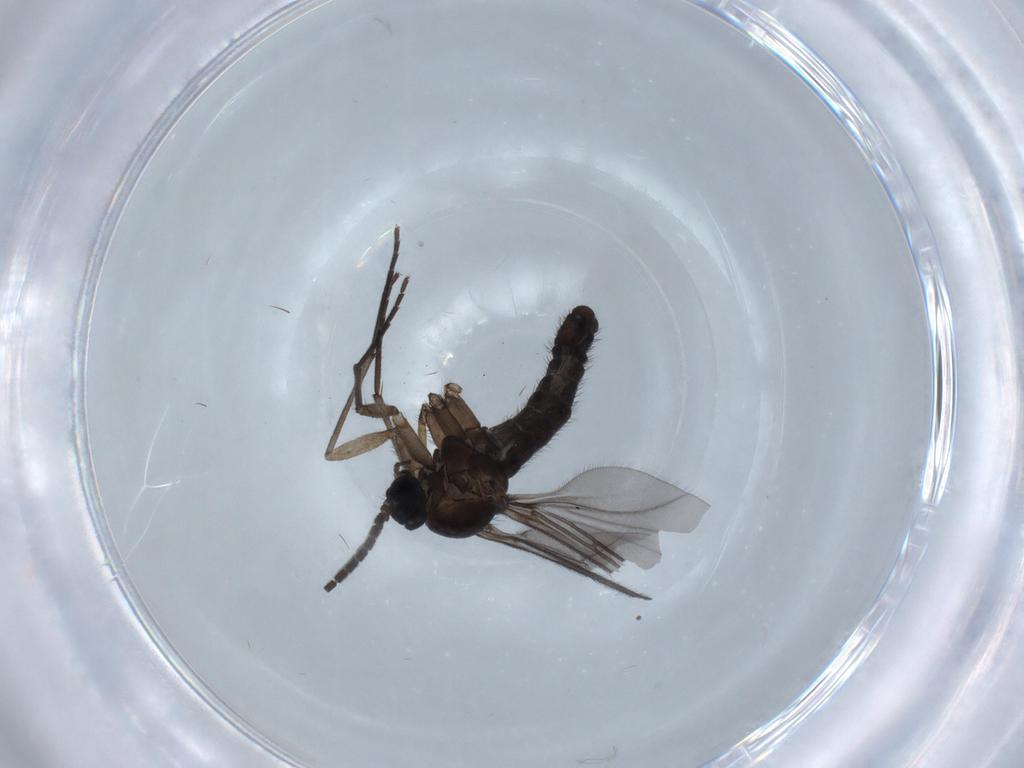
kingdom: Animalia
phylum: Arthropoda
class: Insecta
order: Diptera
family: Sciaridae
